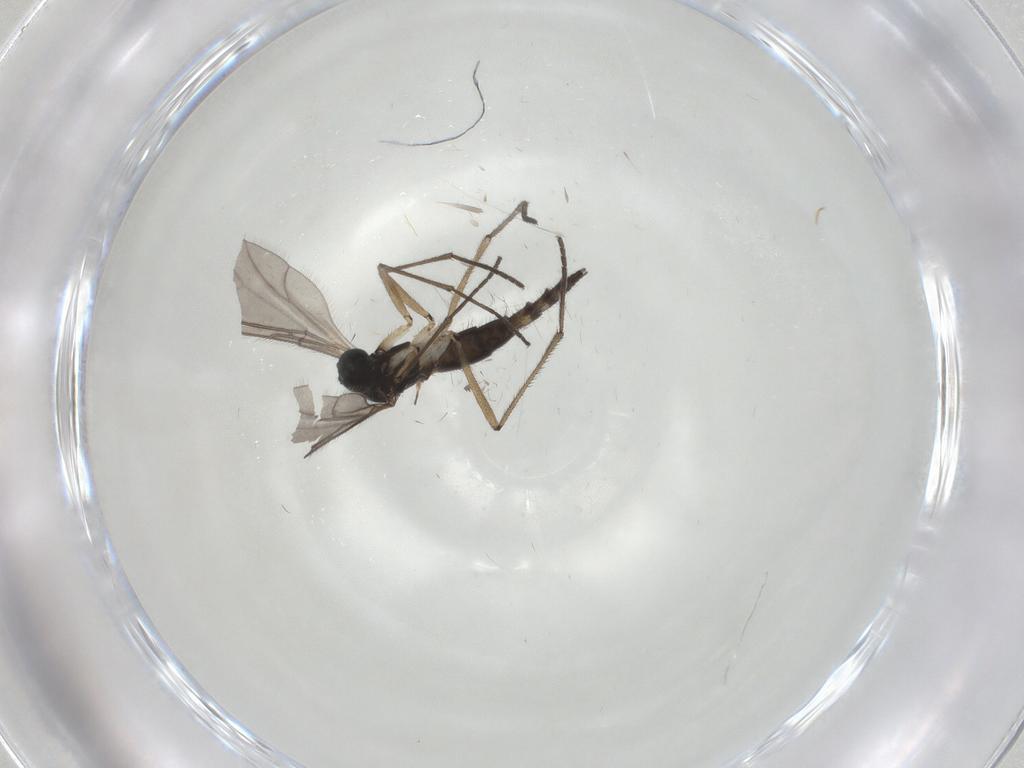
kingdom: Animalia
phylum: Arthropoda
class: Insecta
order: Diptera
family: Sciaridae
